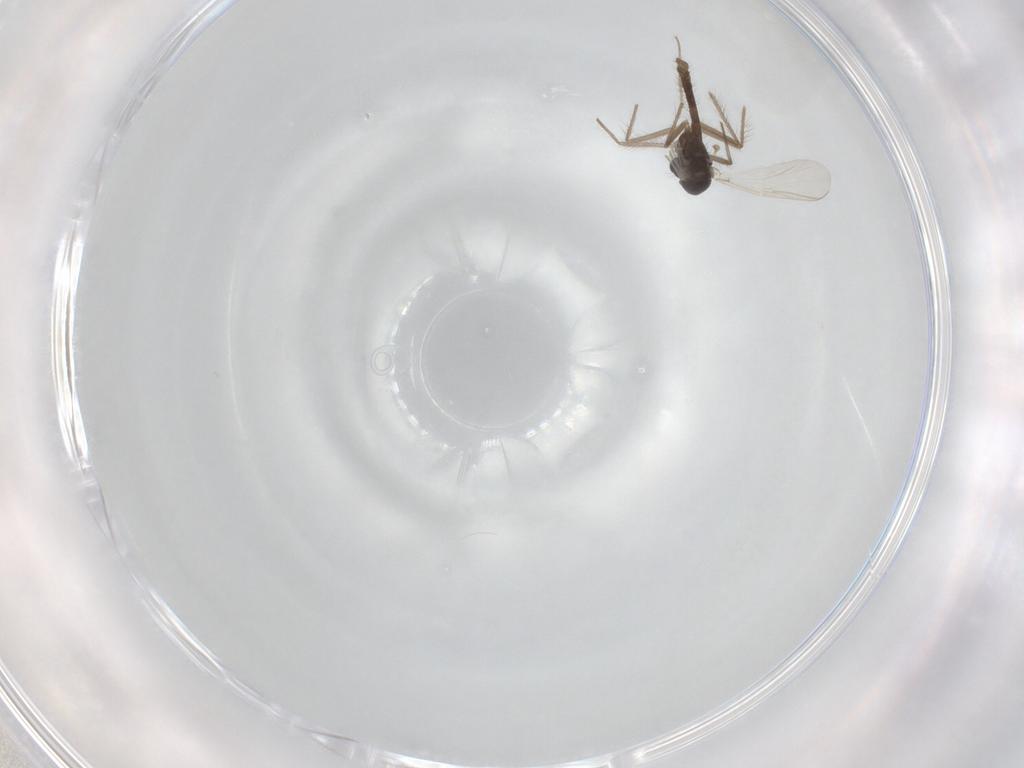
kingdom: Animalia
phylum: Arthropoda
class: Insecta
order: Diptera
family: Chironomidae
